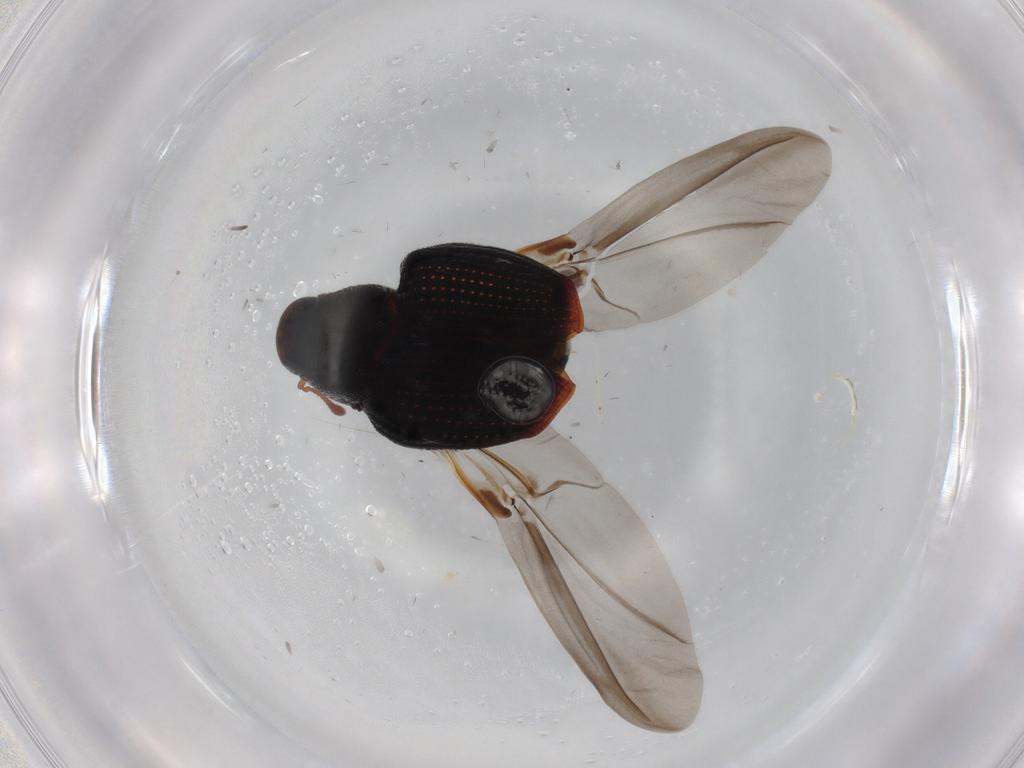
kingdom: Animalia
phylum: Arthropoda
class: Insecta
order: Coleoptera
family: Curculionidae
